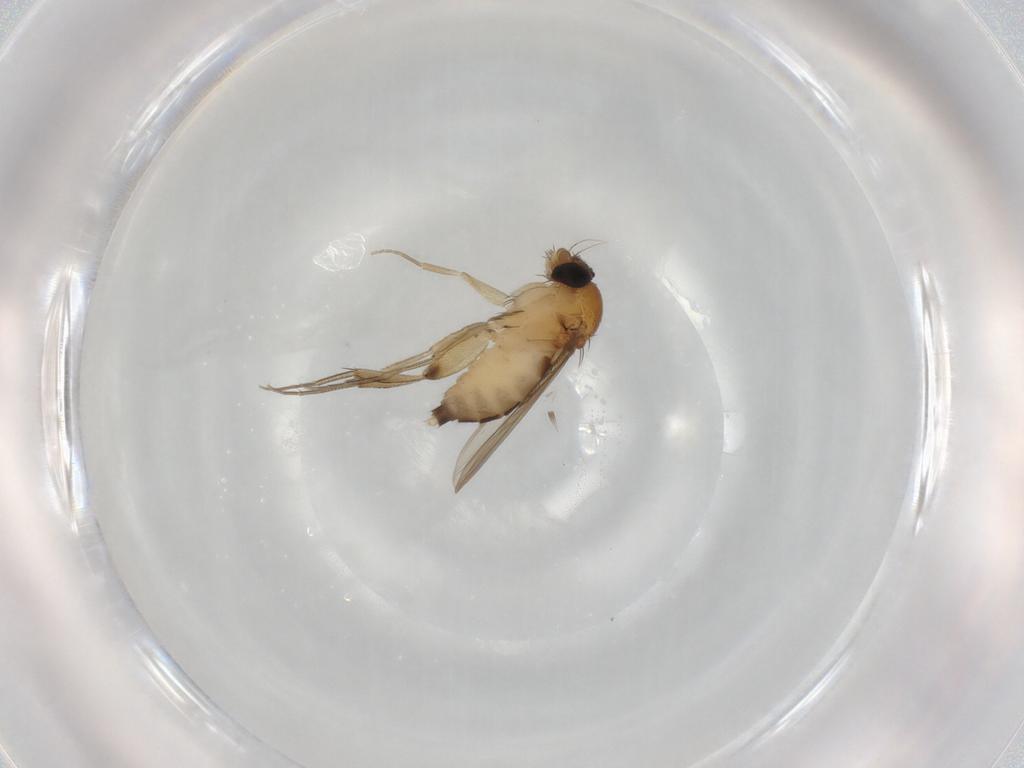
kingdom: Animalia
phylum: Arthropoda
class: Insecta
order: Diptera
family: Phoridae
